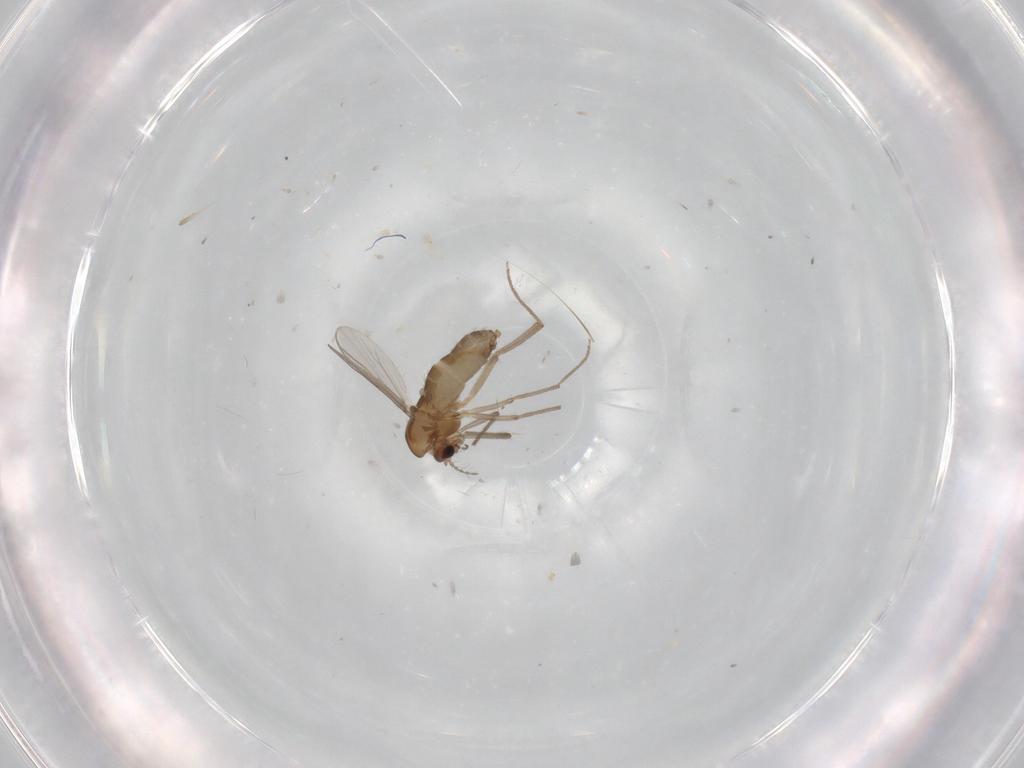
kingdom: Animalia
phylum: Arthropoda
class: Insecta
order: Diptera
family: Chironomidae
